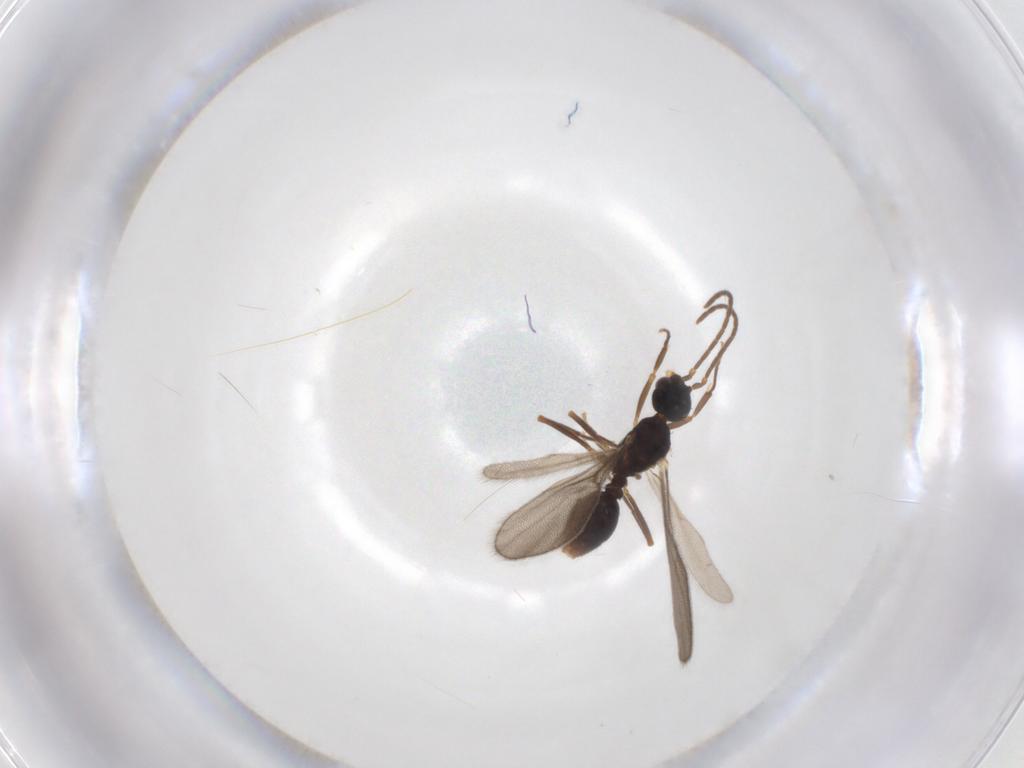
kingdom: Animalia
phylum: Arthropoda
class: Insecta
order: Hymenoptera
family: Formicidae
